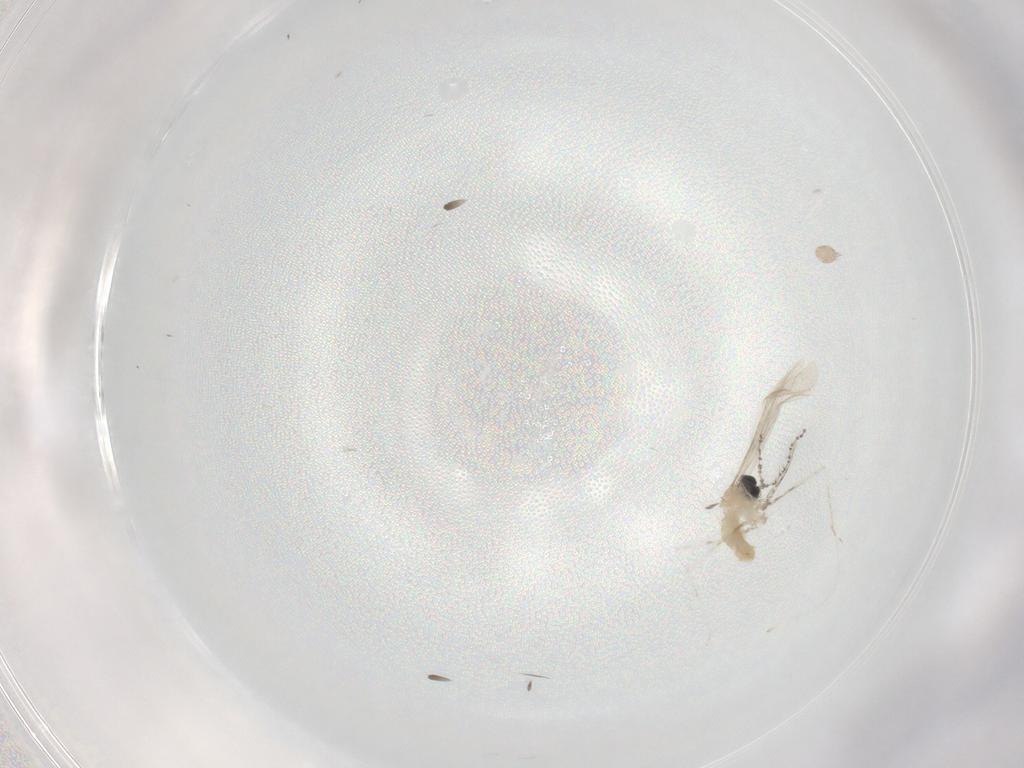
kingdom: Animalia
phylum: Arthropoda
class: Insecta
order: Diptera
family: Cecidomyiidae
